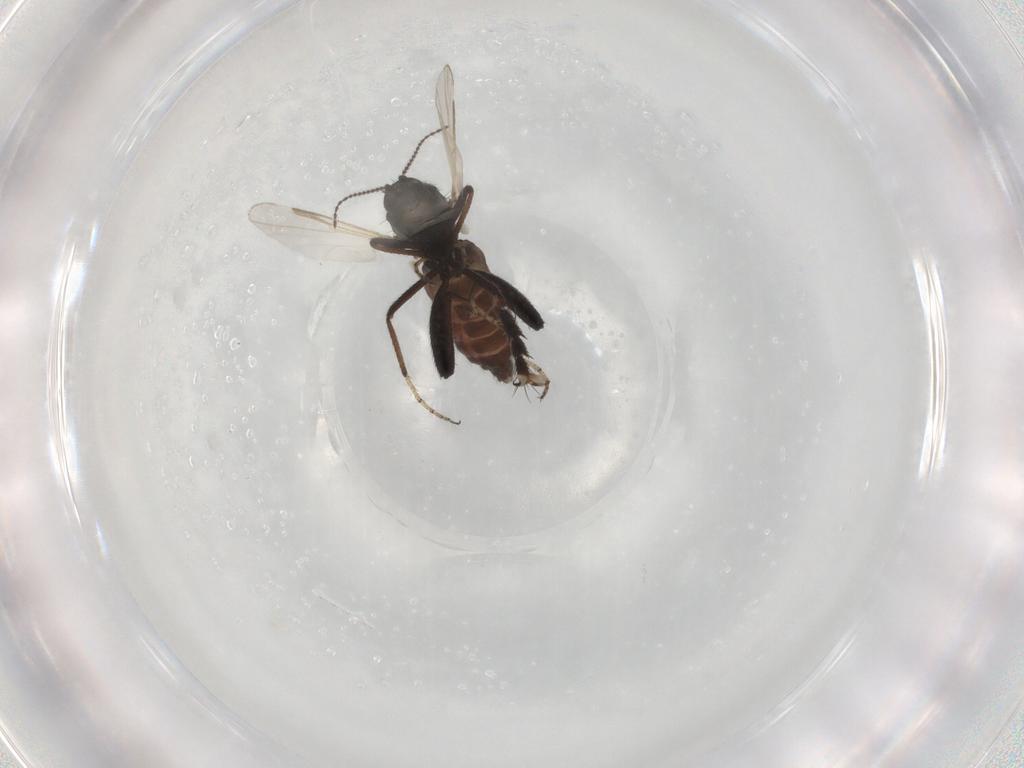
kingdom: Animalia
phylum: Arthropoda
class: Insecta
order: Diptera
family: Ceratopogonidae
